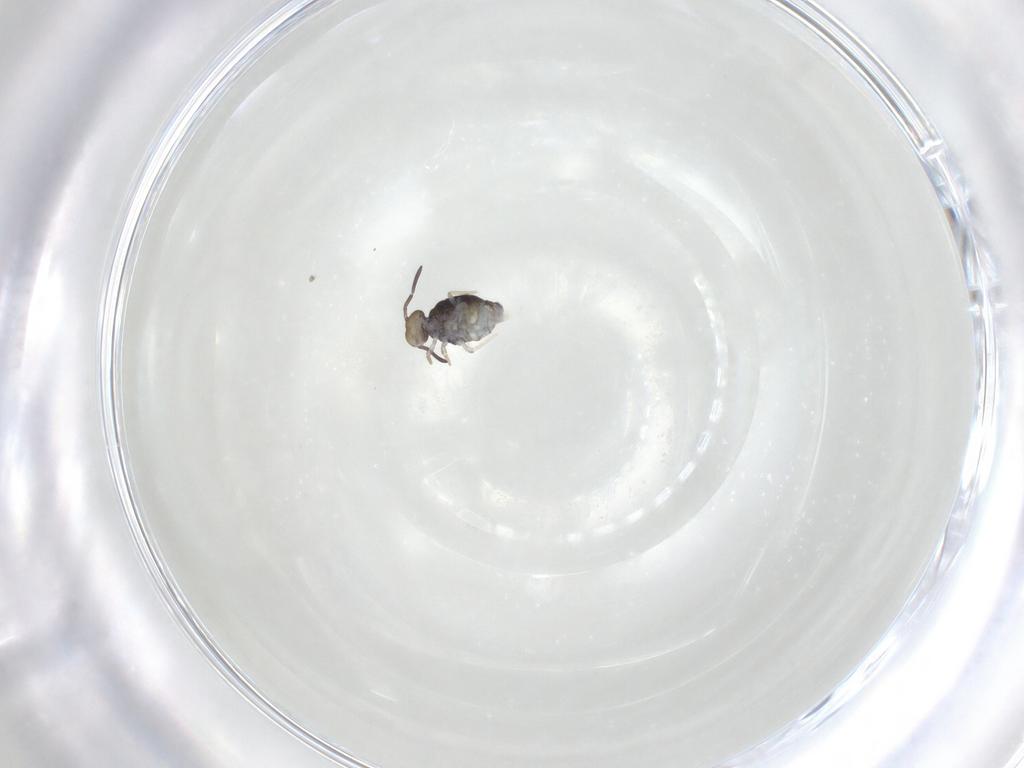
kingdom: Animalia
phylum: Arthropoda
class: Collembola
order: Symphypleona
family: Katiannidae
